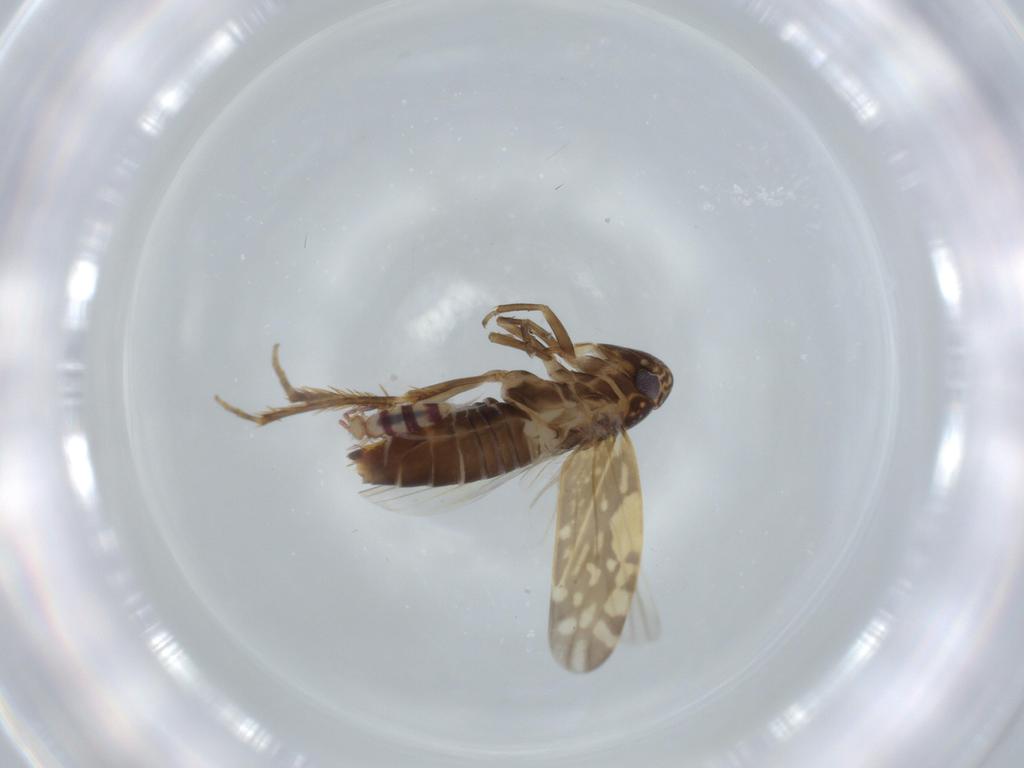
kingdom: Animalia
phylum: Arthropoda
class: Insecta
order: Hemiptera
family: Cicadellidae
